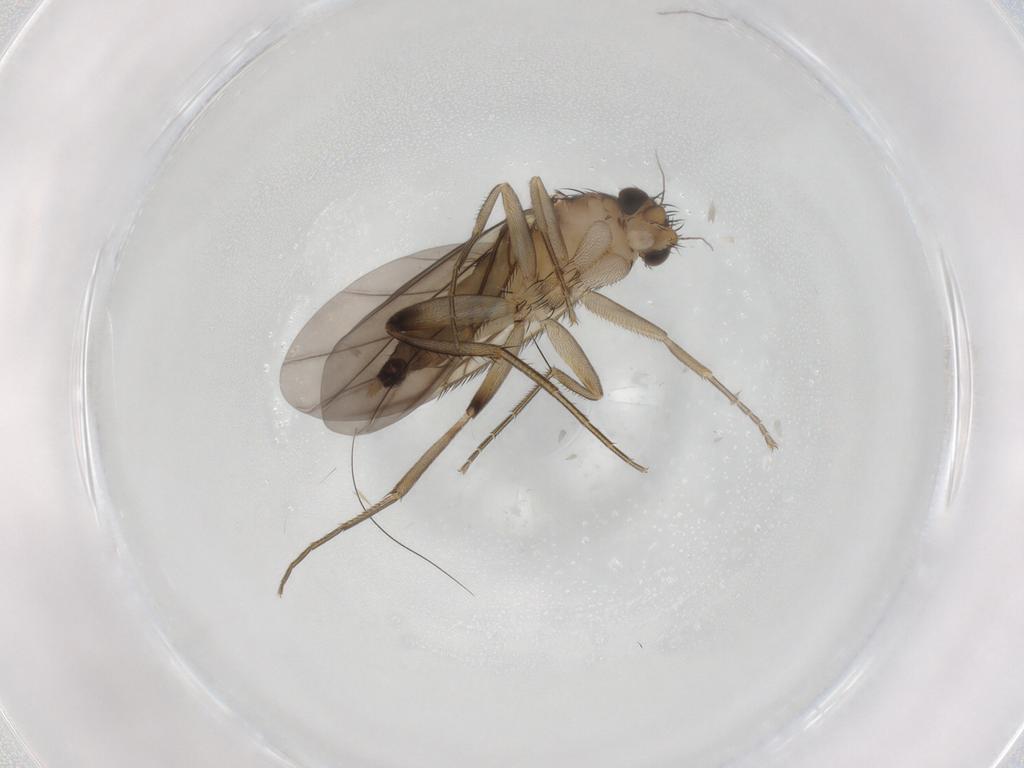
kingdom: Animalia
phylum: Arthropoda
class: Insecta
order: Diptera
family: Phoridae
